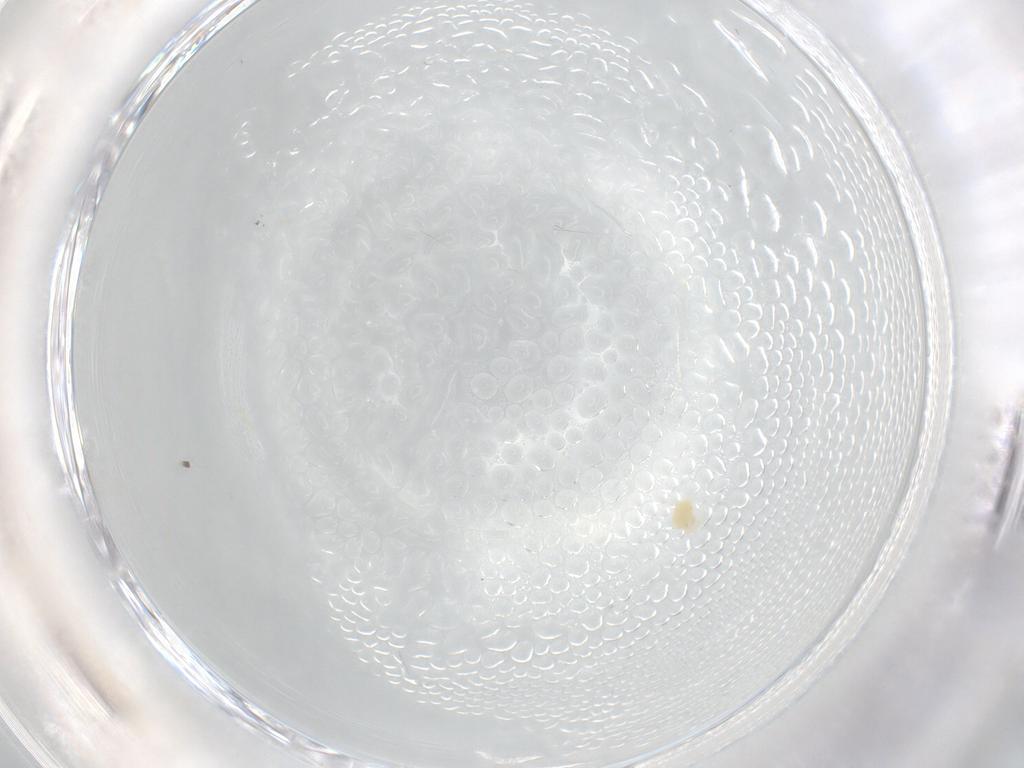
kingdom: Animalia
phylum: Arthropoda
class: Arachnida
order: Trombidiformes
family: Tetranychidae
